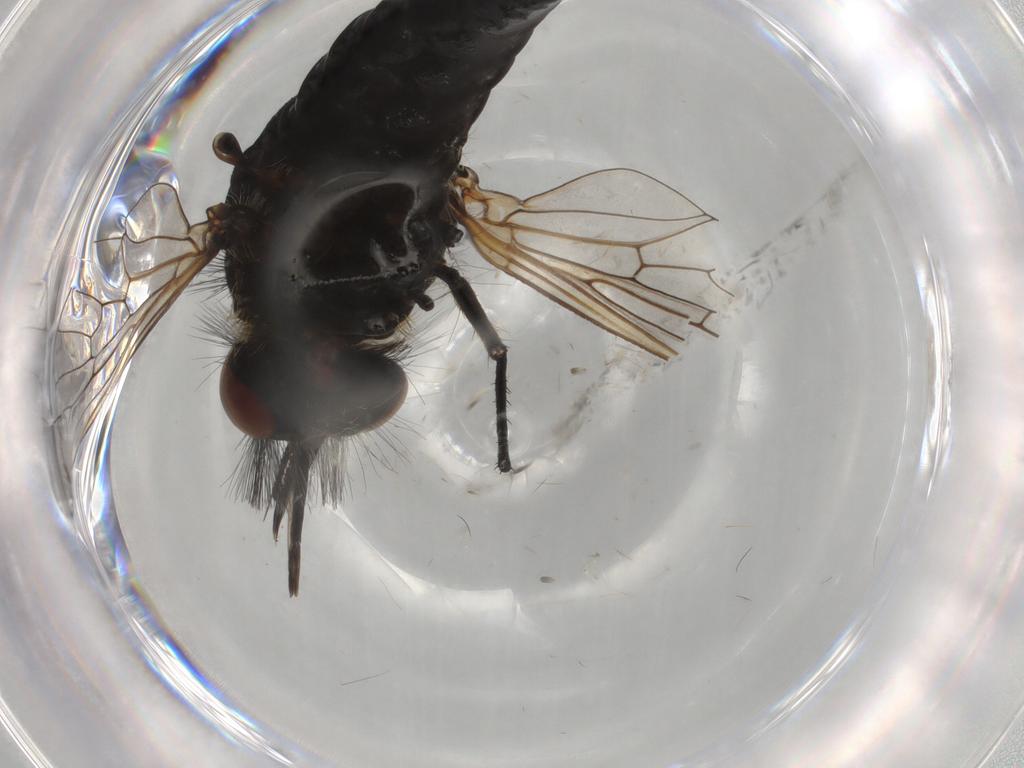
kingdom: Animalia
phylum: Arthropoda
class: Insecta
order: Diptera
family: Bombyliidae
